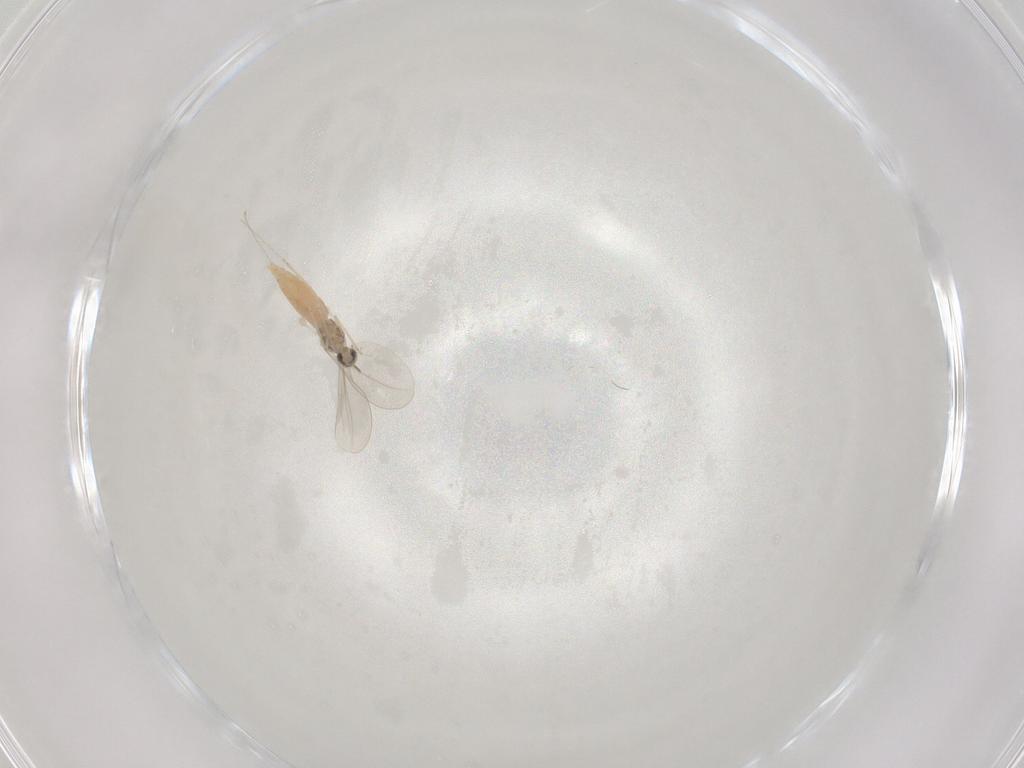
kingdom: Animalia
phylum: Arthropoda
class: Insecta
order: Diptera
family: Cecidomyiidae
